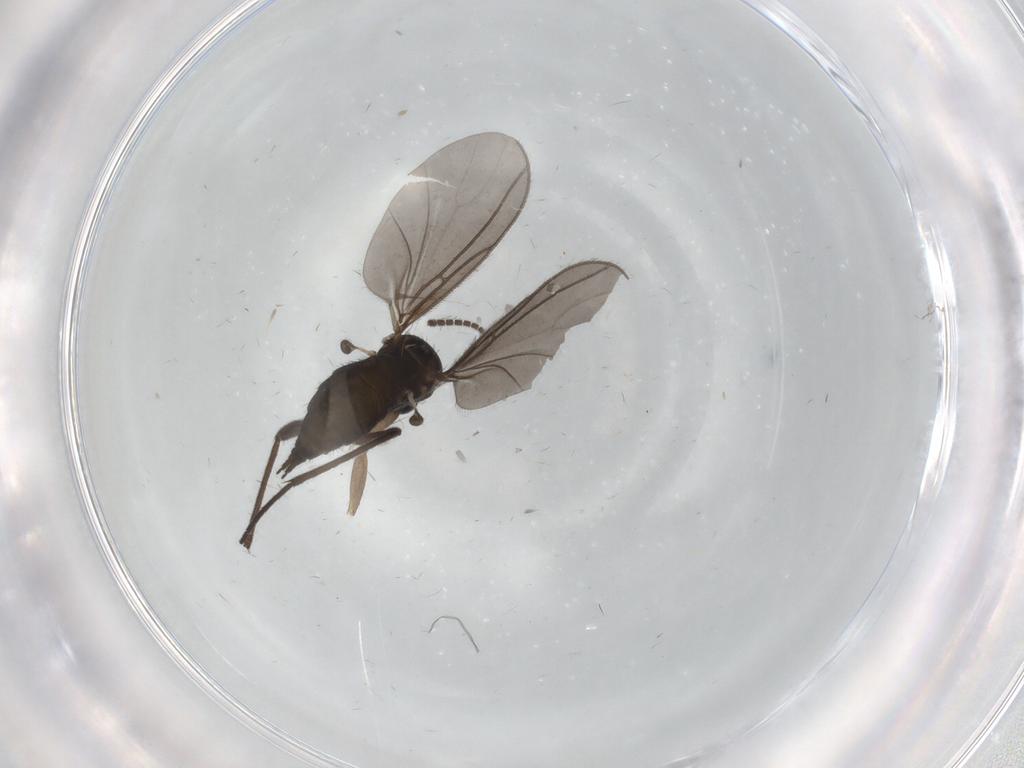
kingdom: Animalia
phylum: Arthropoda
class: Insecta
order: Diptera
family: Sciaridae
